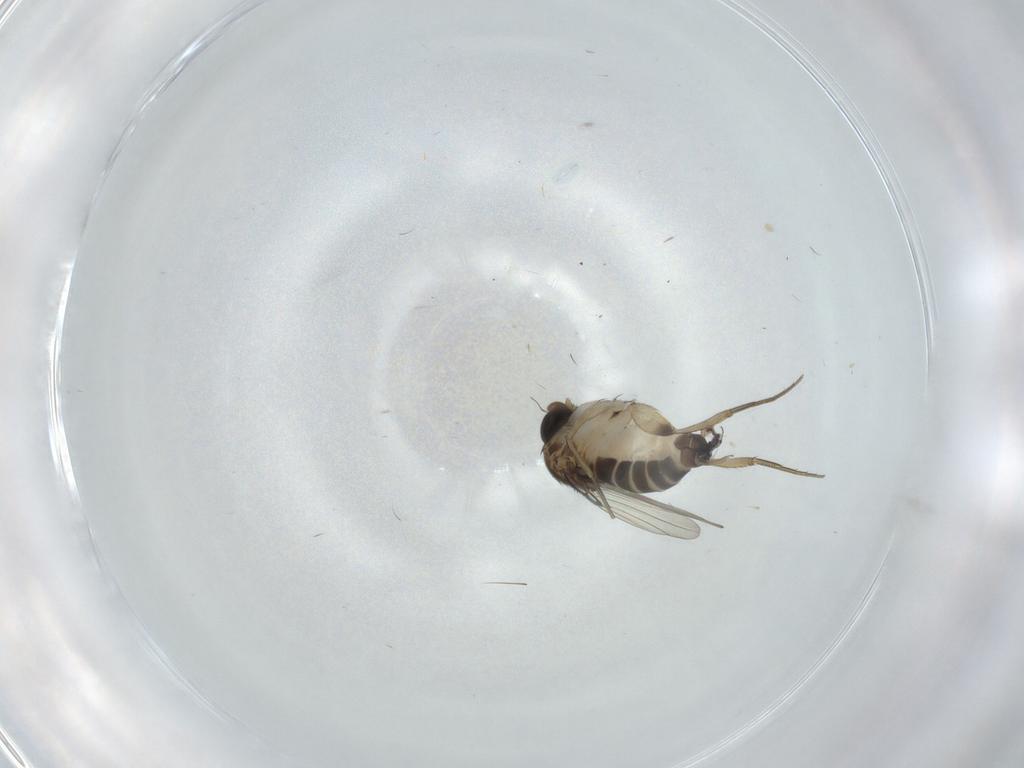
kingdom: Animalia
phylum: Arthropoda
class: Insecta
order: Diptera
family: Phoridae
